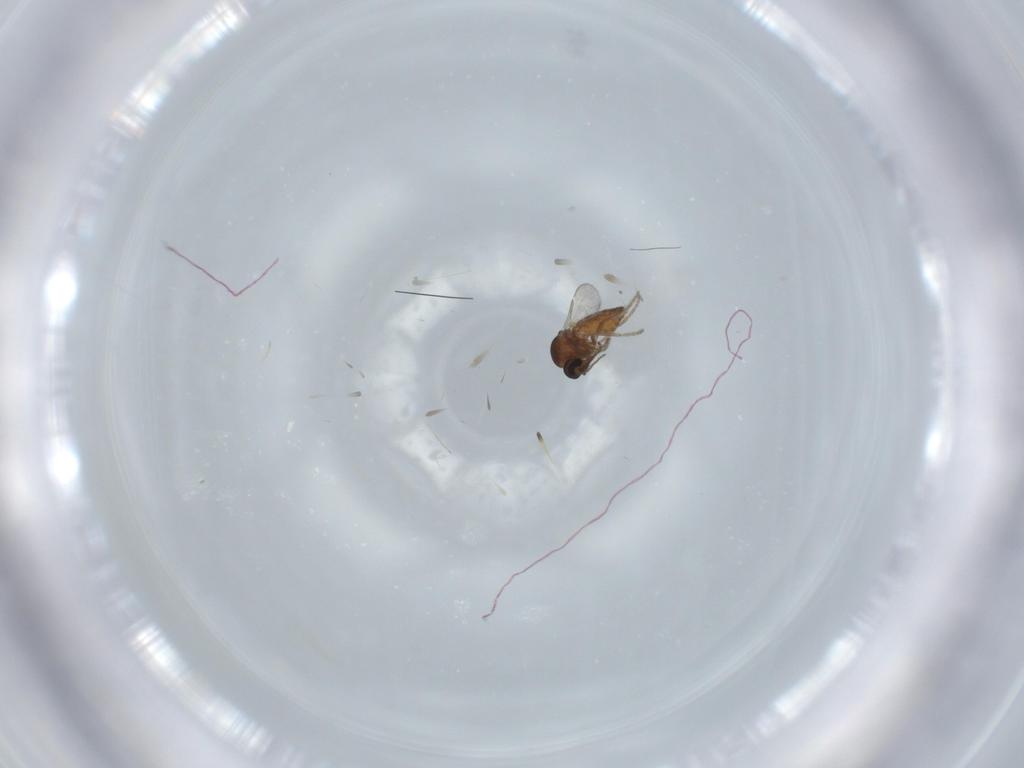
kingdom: Animalia
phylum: Arthropoda
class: Insecta
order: Diptera
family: Ceratopogonidae
